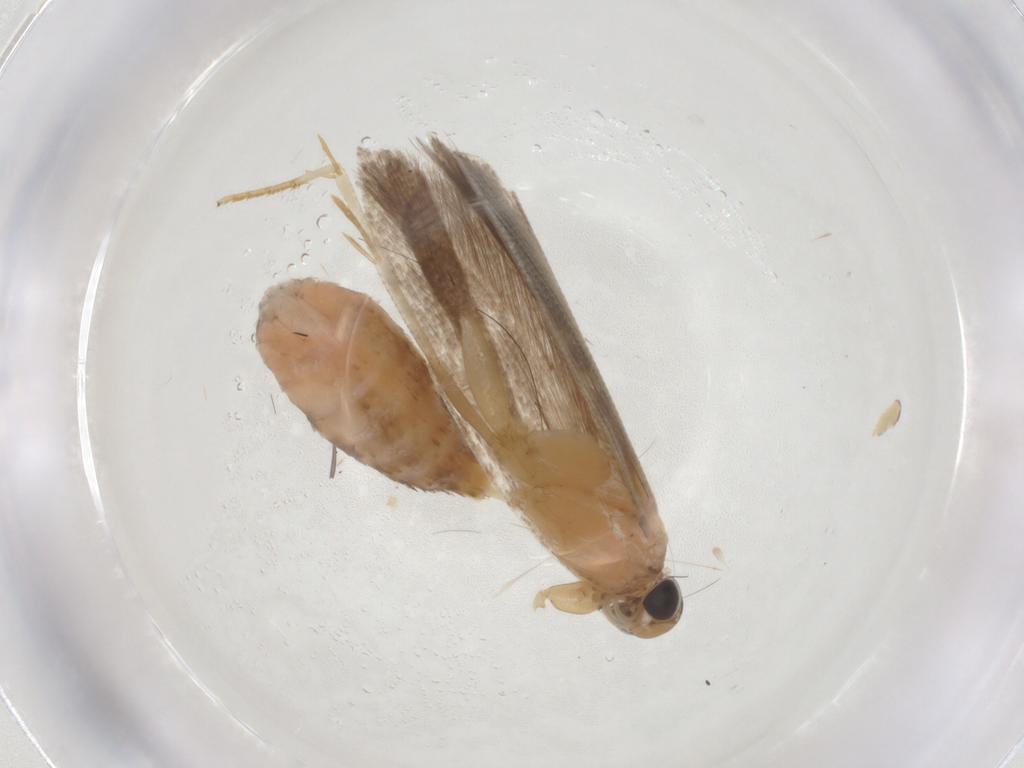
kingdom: Animalia
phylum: Arthropoda
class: Insecta
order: Lepidoptera
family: Gelechiidae
